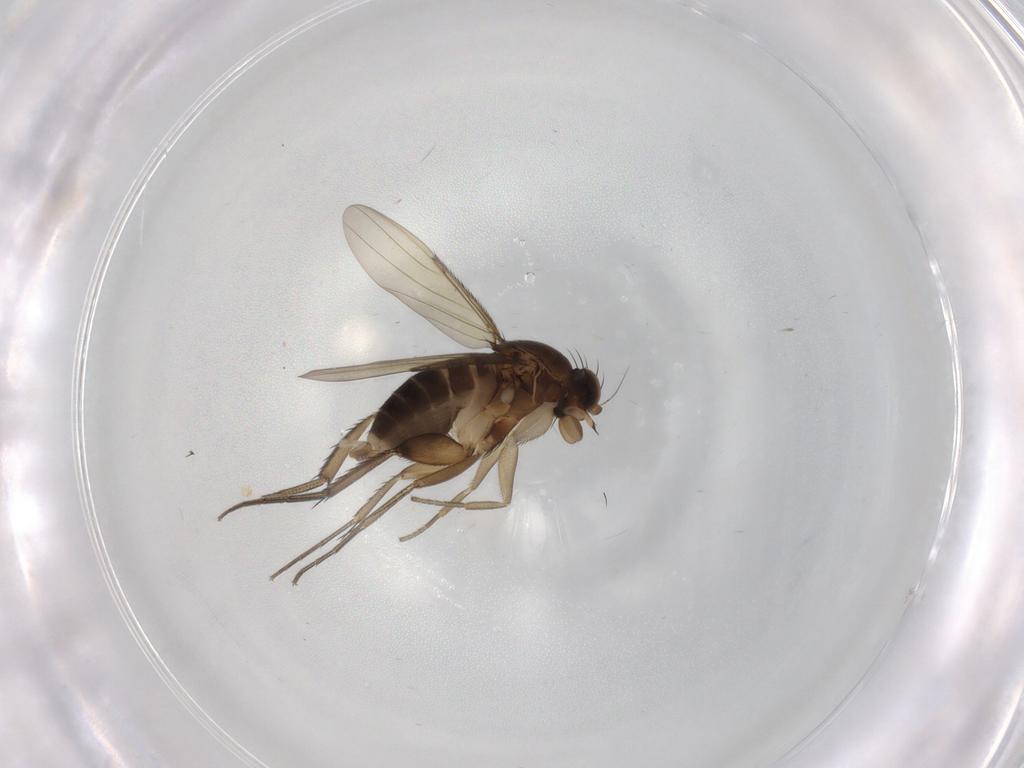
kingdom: Animalia
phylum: Arthropoda
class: Insecta
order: Diptera
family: Phoridae
